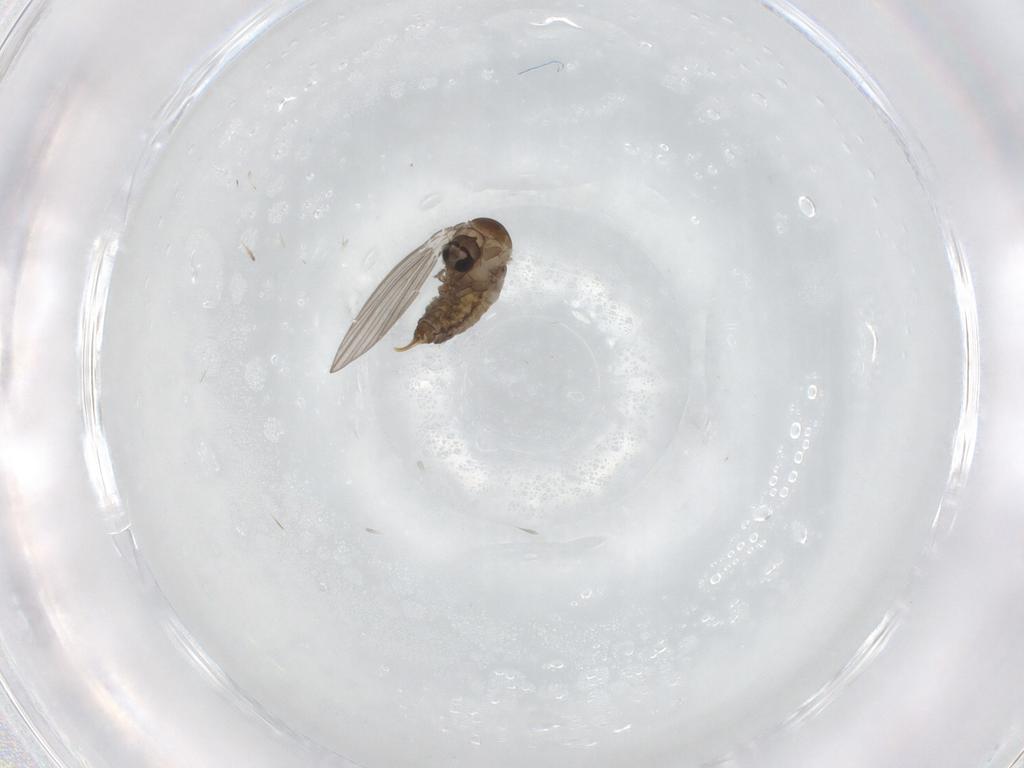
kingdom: Animalia
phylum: Arthropoda
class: Insecta
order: Diptera
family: Psychodidae
